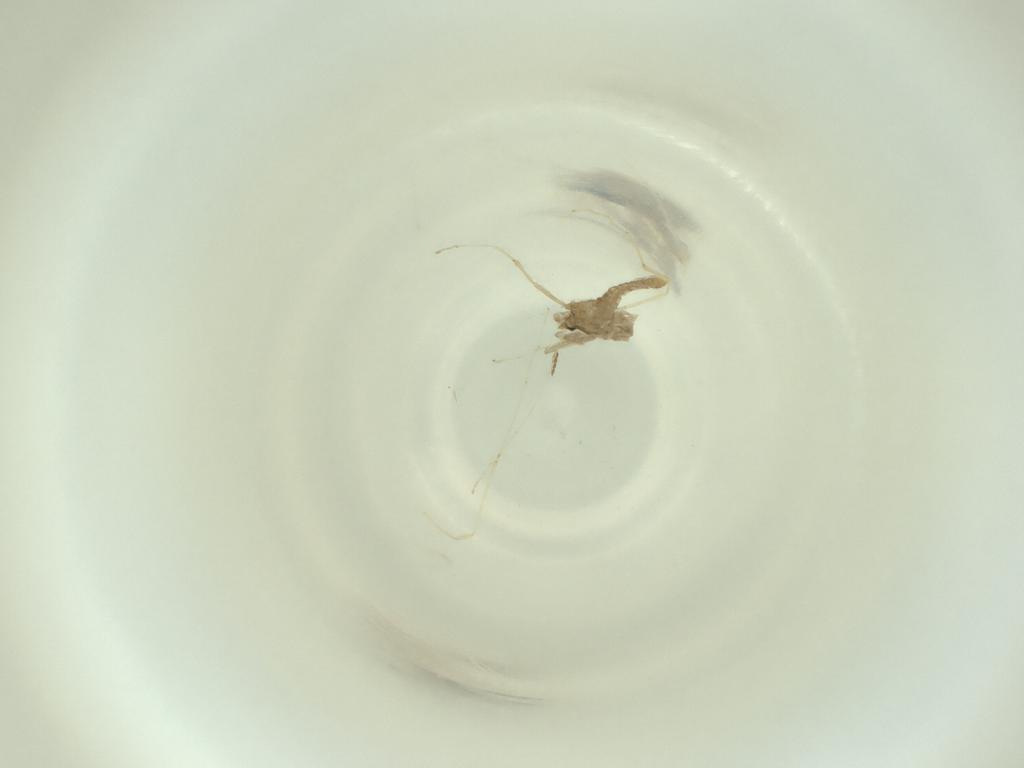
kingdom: Animalia
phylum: Arthropoda
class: Insecta
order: Diptera
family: Cecidomyiidae
